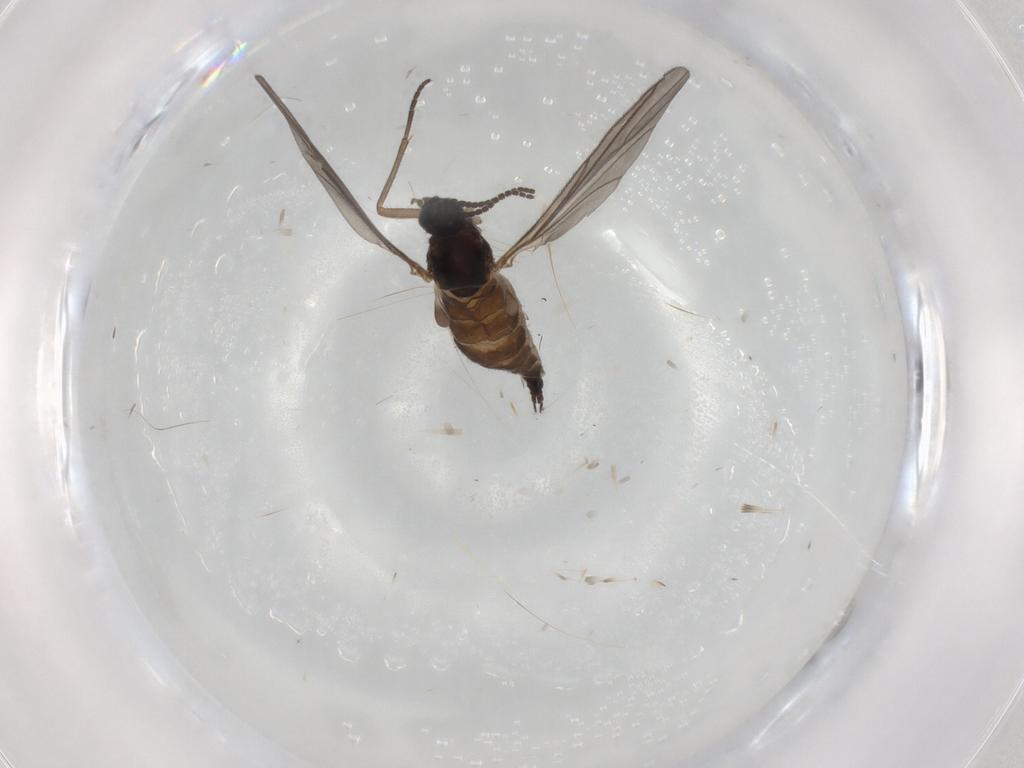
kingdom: Animalia
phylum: Arthropoda
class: Insecta
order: Diptera
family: Sciaridae
